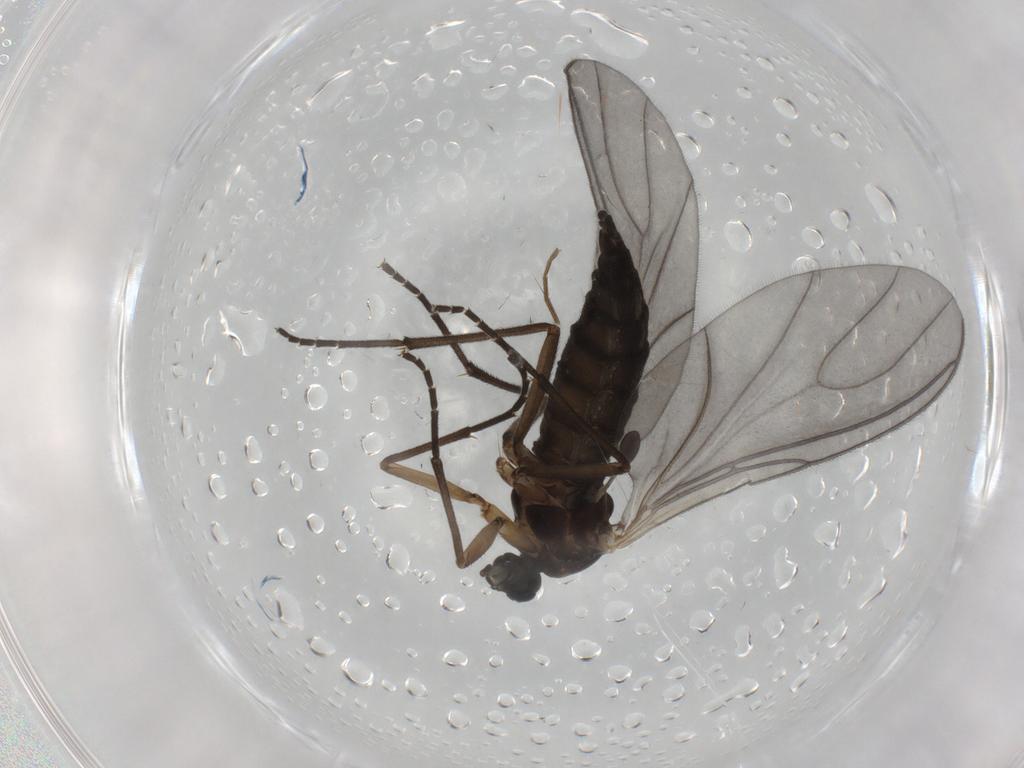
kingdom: Animalia
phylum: Arthropoda
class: Insecta
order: Diptera
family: Sciaridae
